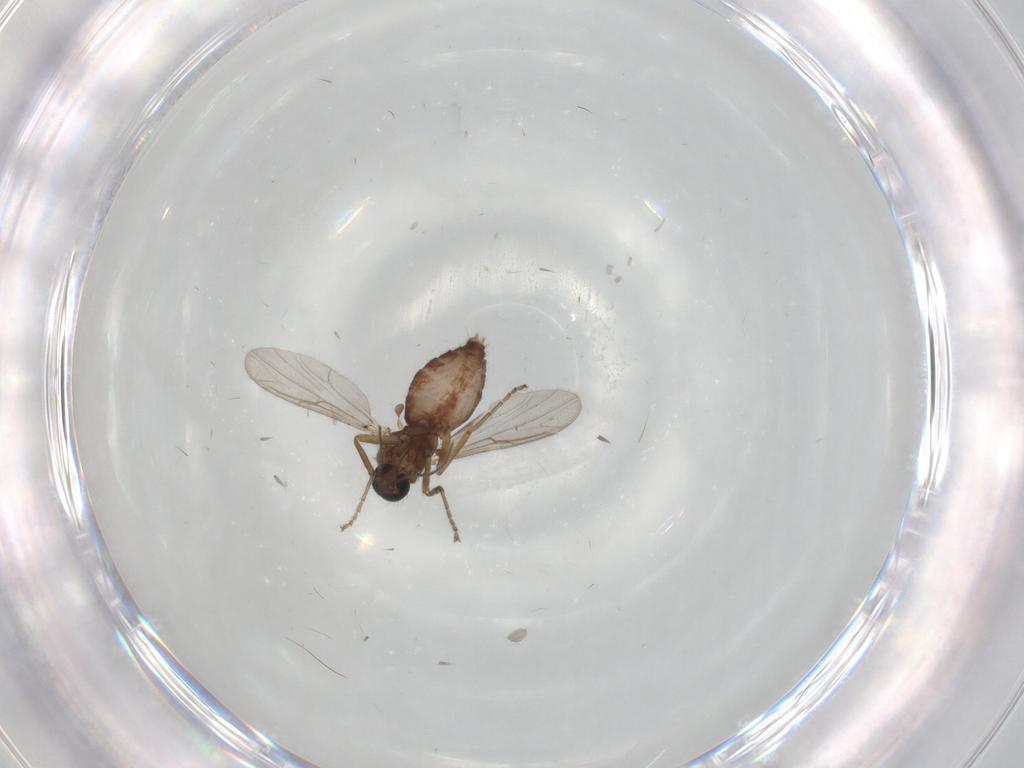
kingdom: Animalia
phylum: Arthropoda
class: Insecta
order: Diptera
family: Ceratopogonidae
